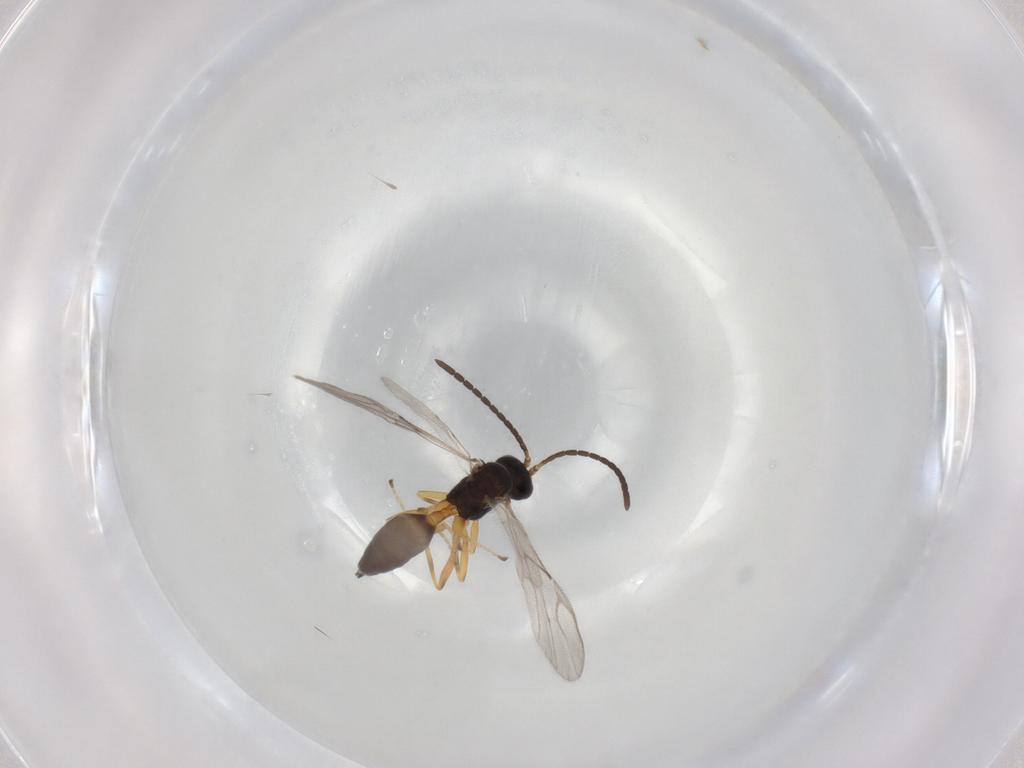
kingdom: Animalia
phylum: Arthropoda
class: Insecta
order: Hymenoptera
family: Braconidae
